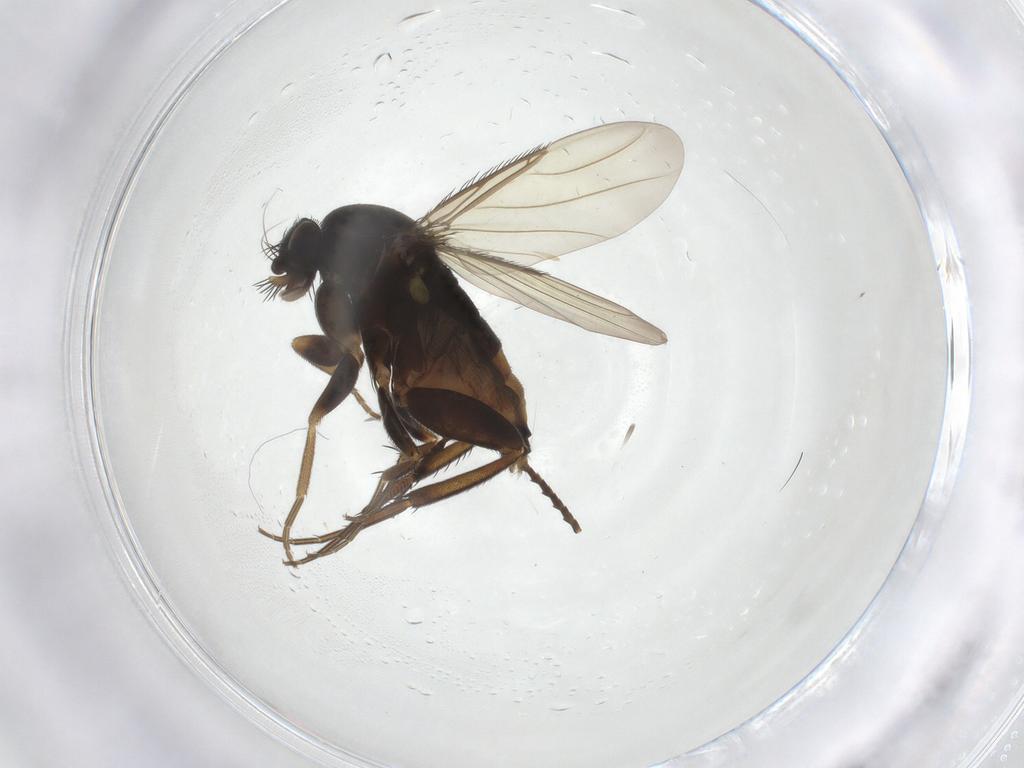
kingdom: Animalia
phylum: Arthropoda
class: Insecta
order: Diptera
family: Phoridae
